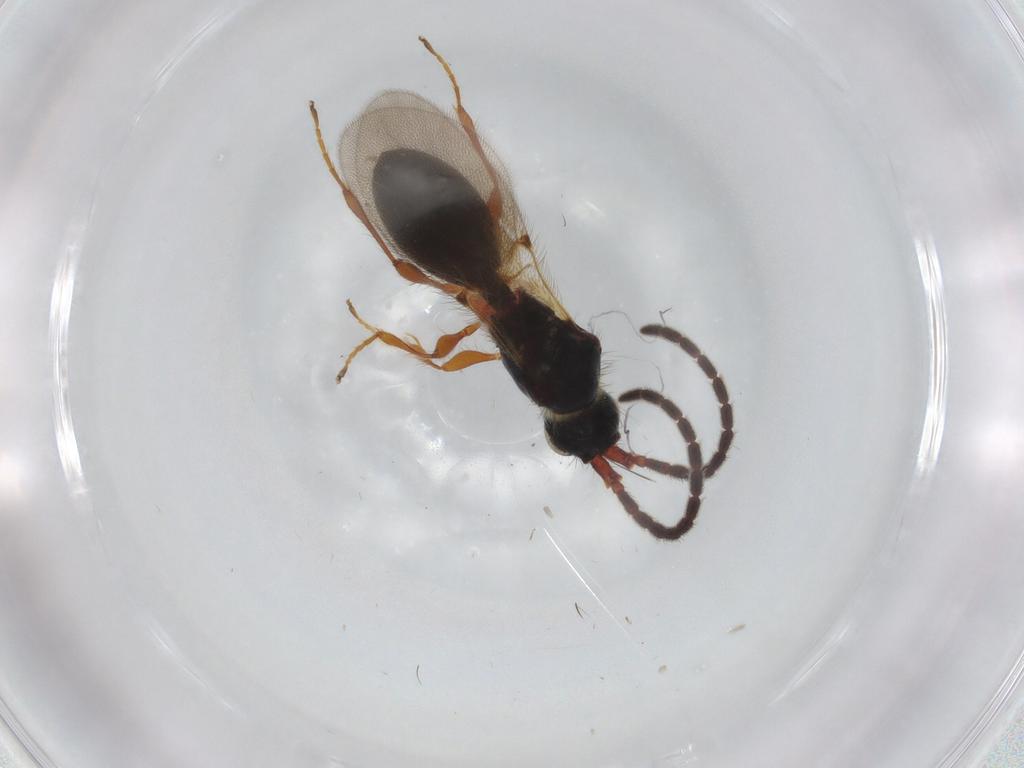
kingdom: Animalia
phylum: Arthropoda
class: Insecta
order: Hymenoptera
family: Diapriidae
